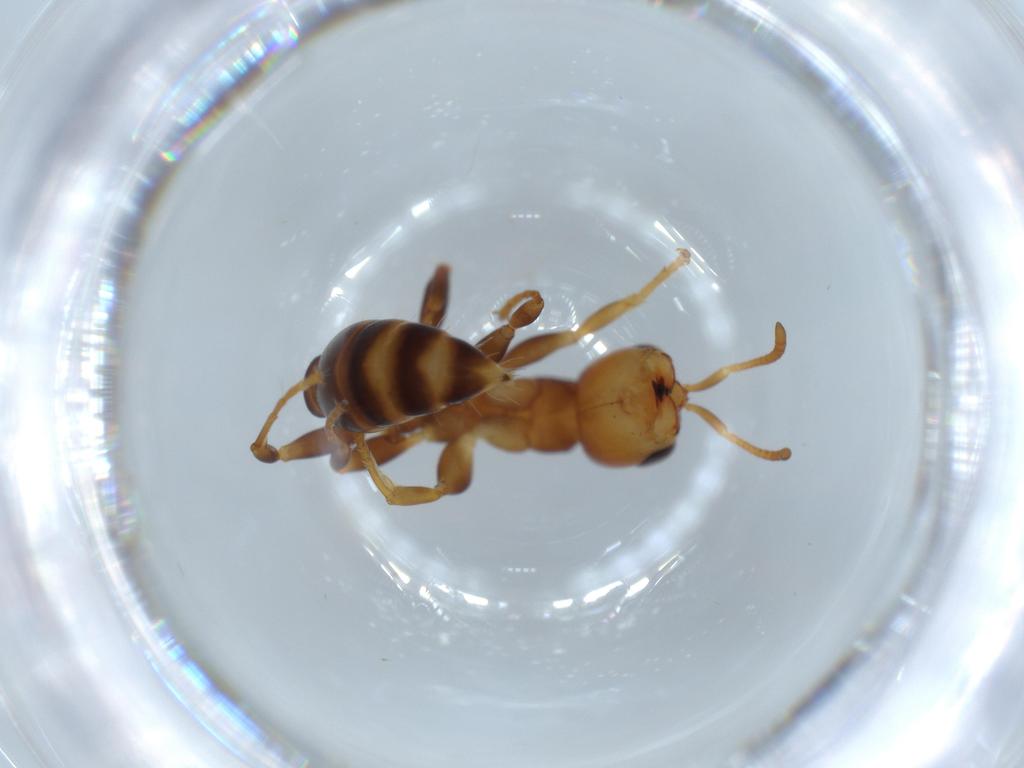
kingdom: Animalia
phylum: Arthropoda
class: Insecta
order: Hymenoptera
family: Formicidae
